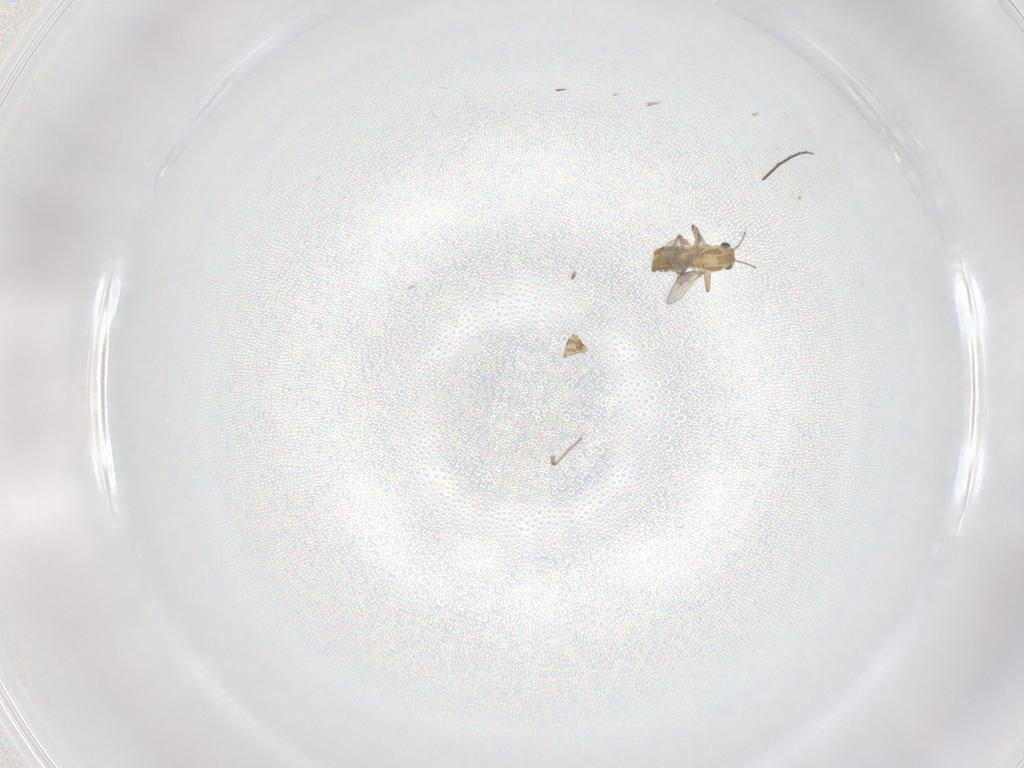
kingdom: Animalia
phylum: Arthropoda
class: Insecta
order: Diptera
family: Chironomidae
